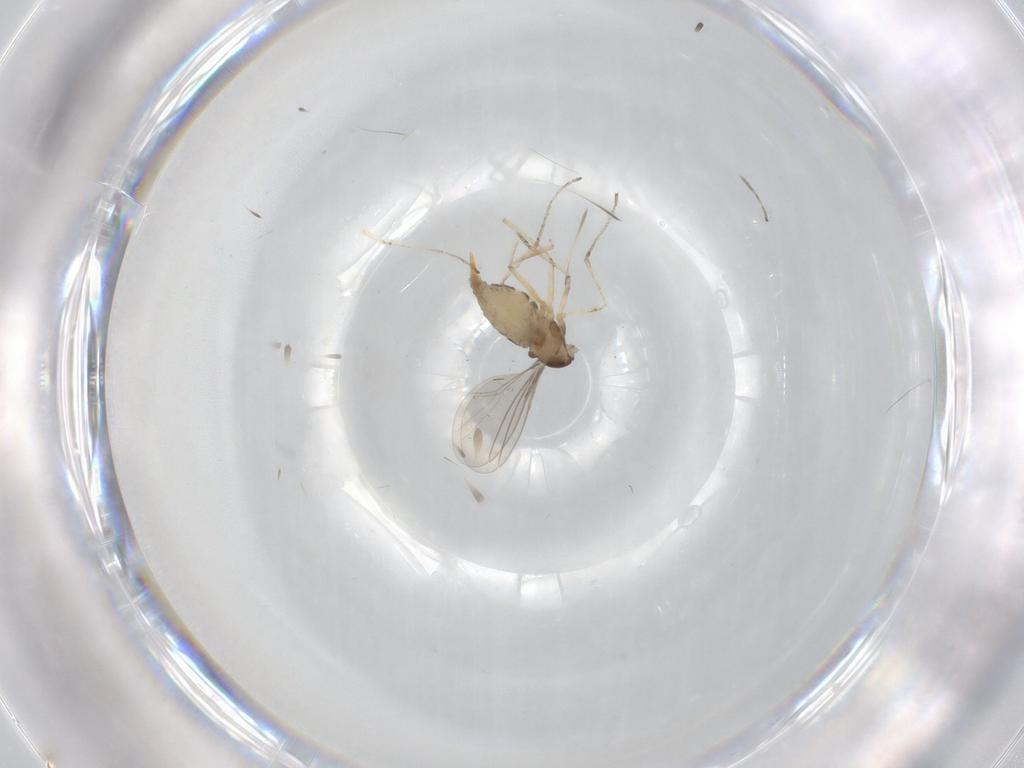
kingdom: Animalia
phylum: Arthropoda
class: Insecta
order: Diptera
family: Cecidomyiidae
